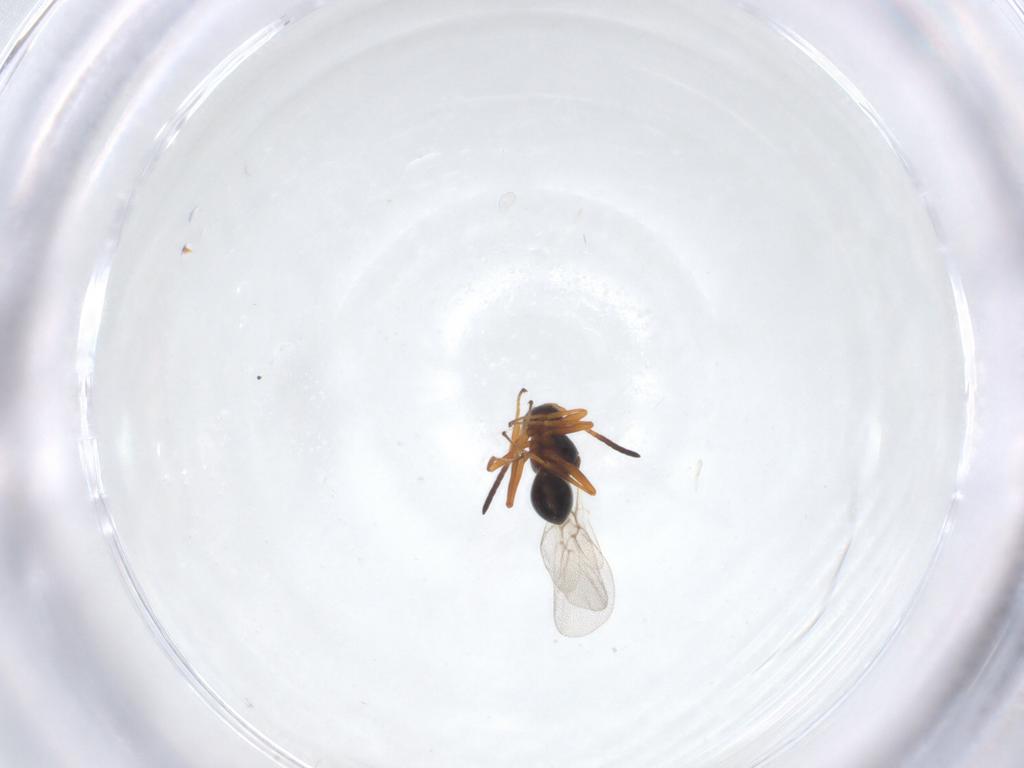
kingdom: Animalia
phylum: Arthropoda
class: Insecta
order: Hymenoptera
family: Figitidae
